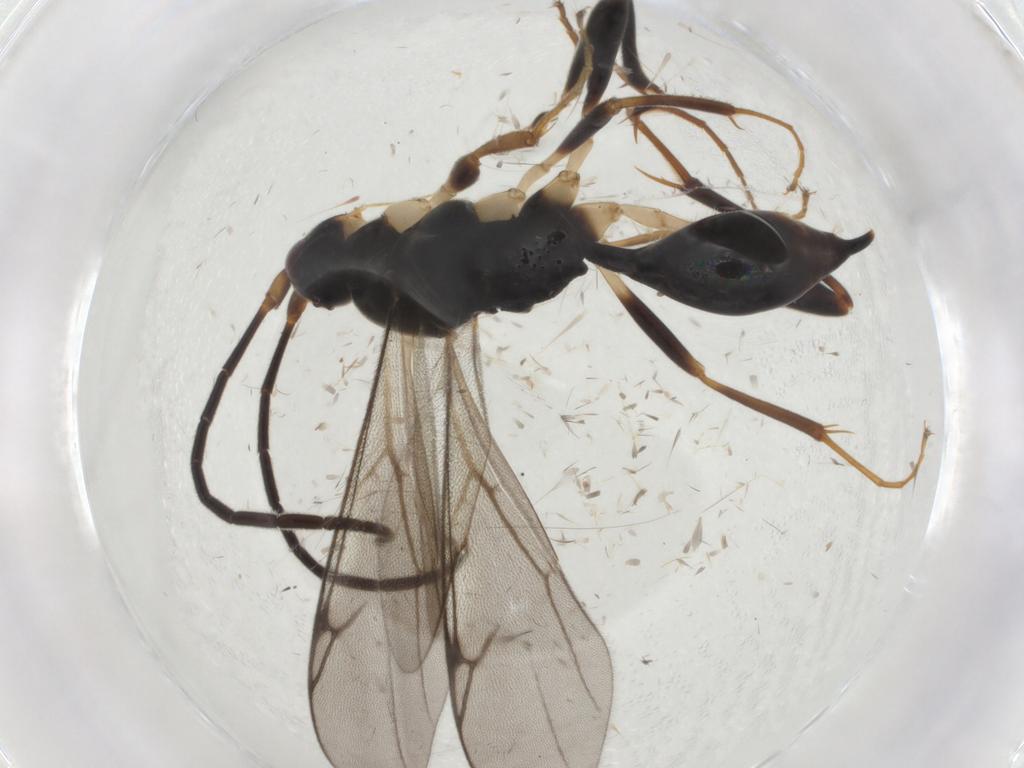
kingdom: Animalia
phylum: Arthropoda
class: Insecta
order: Hymenoptera
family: Proctotrupidae
